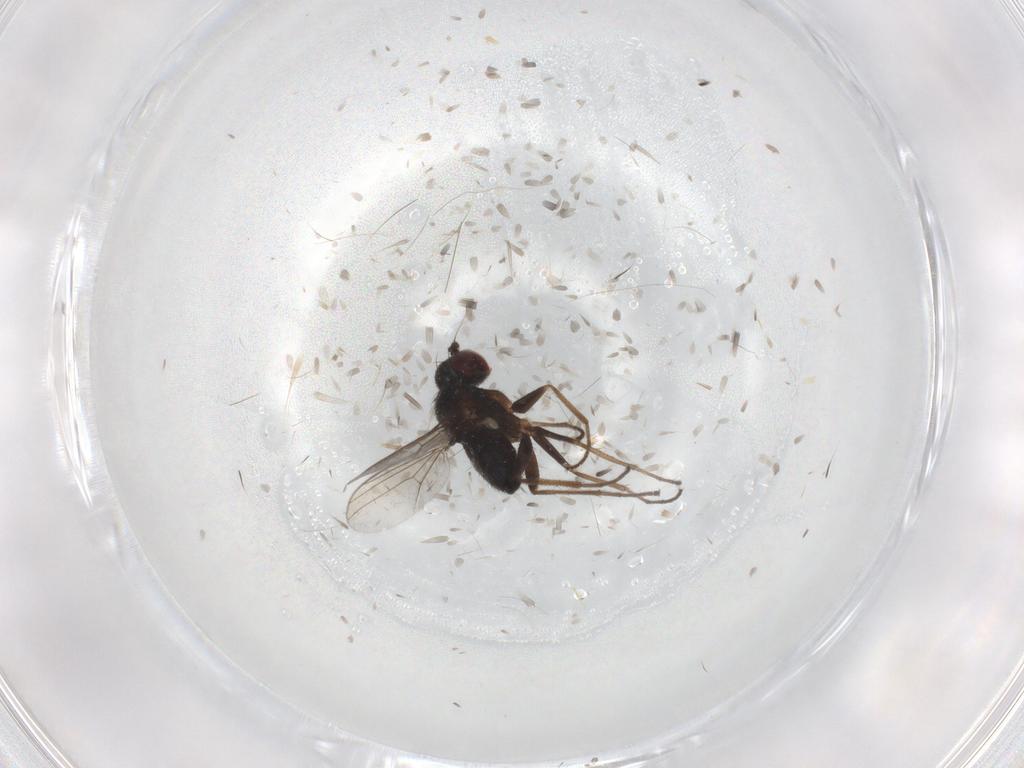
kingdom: Animalia
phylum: Arthropoda
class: Insecta
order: Diptera
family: Dolichopodidae
